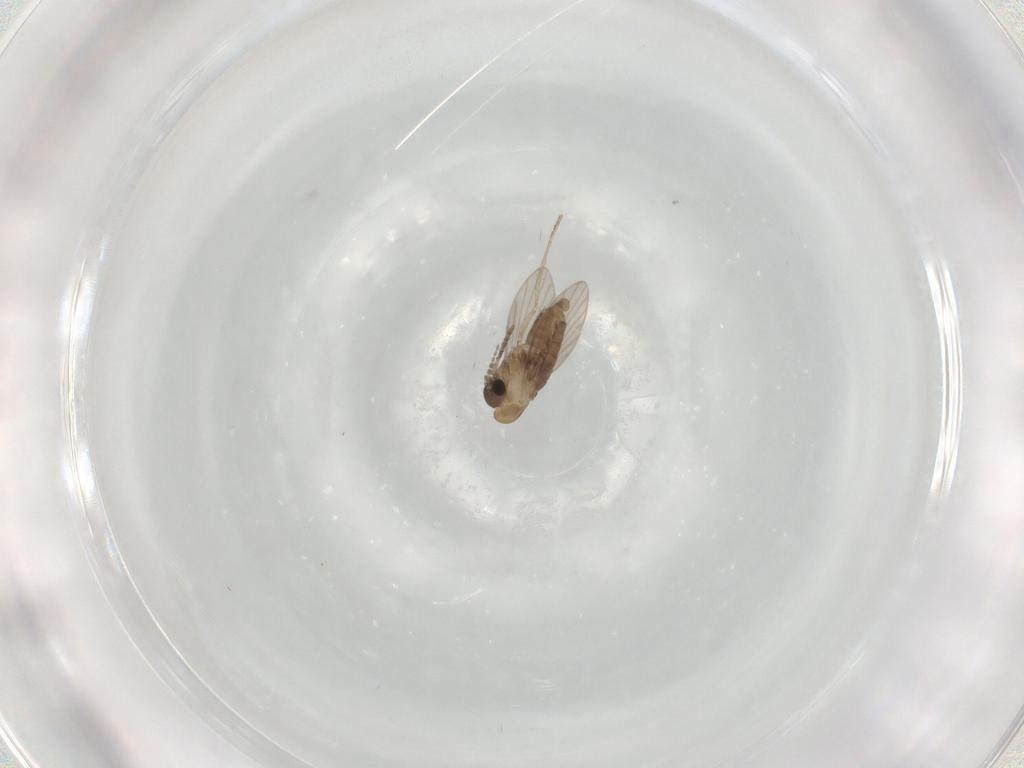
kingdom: Animalia
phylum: Arthropoda
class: Insecta
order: Diptera
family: Psychodidae
